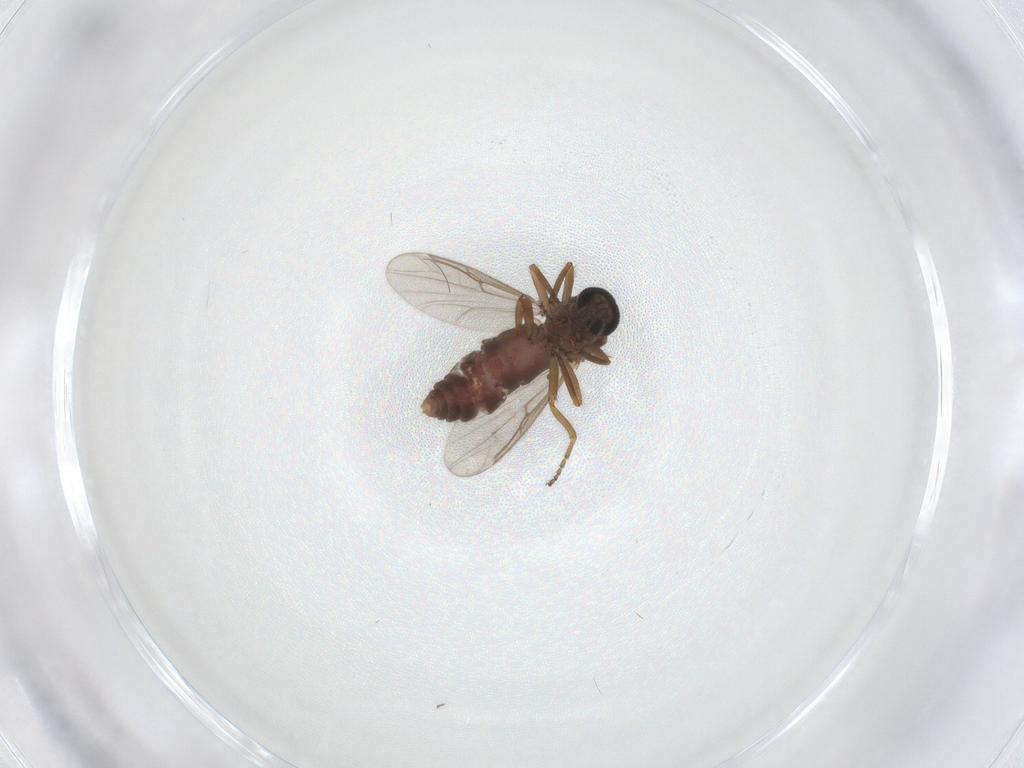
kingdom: Animalia
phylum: Arthropoda
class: Insecta
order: Diptera
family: Ceratopogonidae
